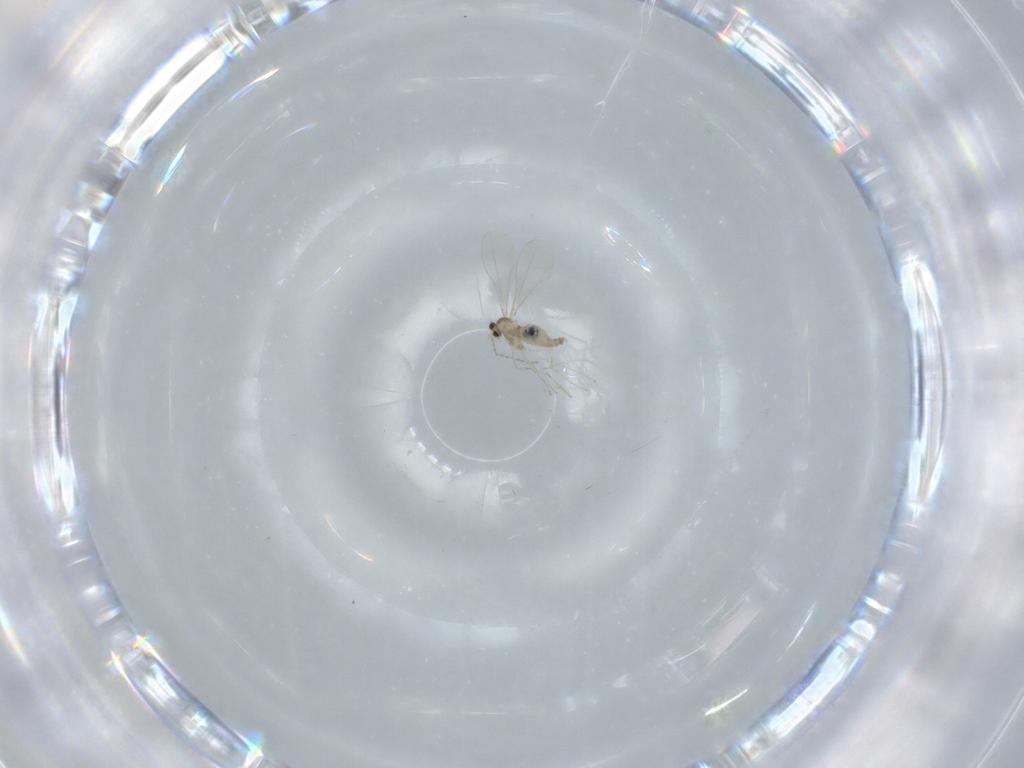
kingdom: Animalia
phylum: Arthropoda
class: Insecta
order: Diptera
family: Cecidomyiidae
